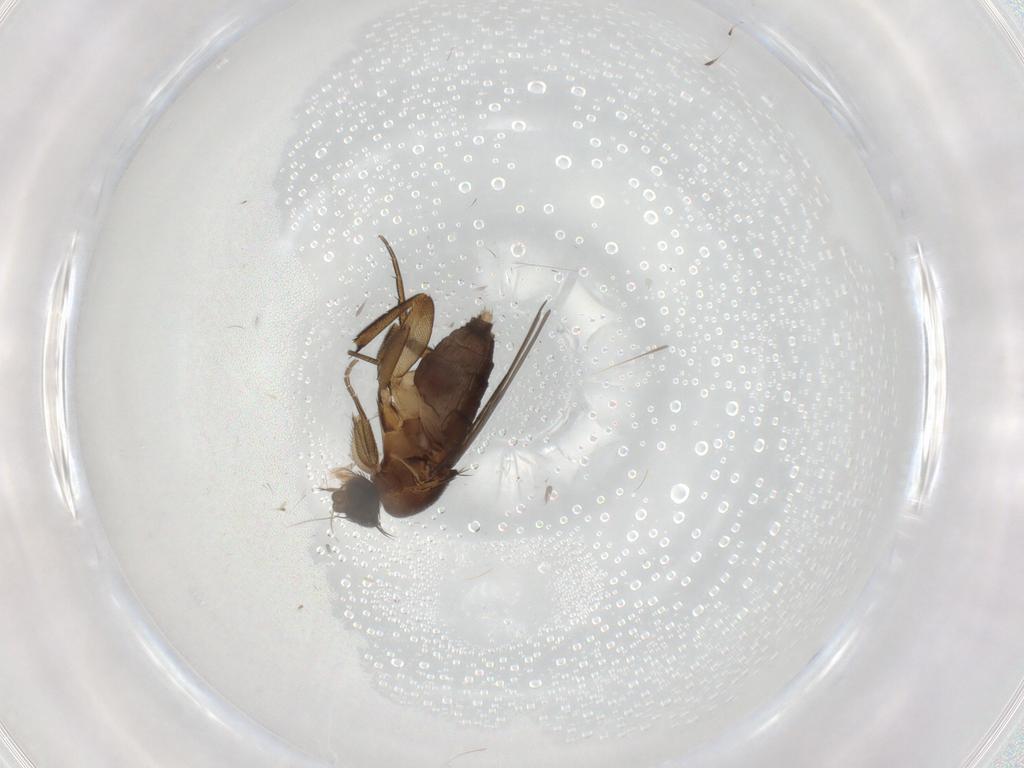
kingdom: Animalia
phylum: Arthropoda
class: Insecta
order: Diptera
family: Phoridae
